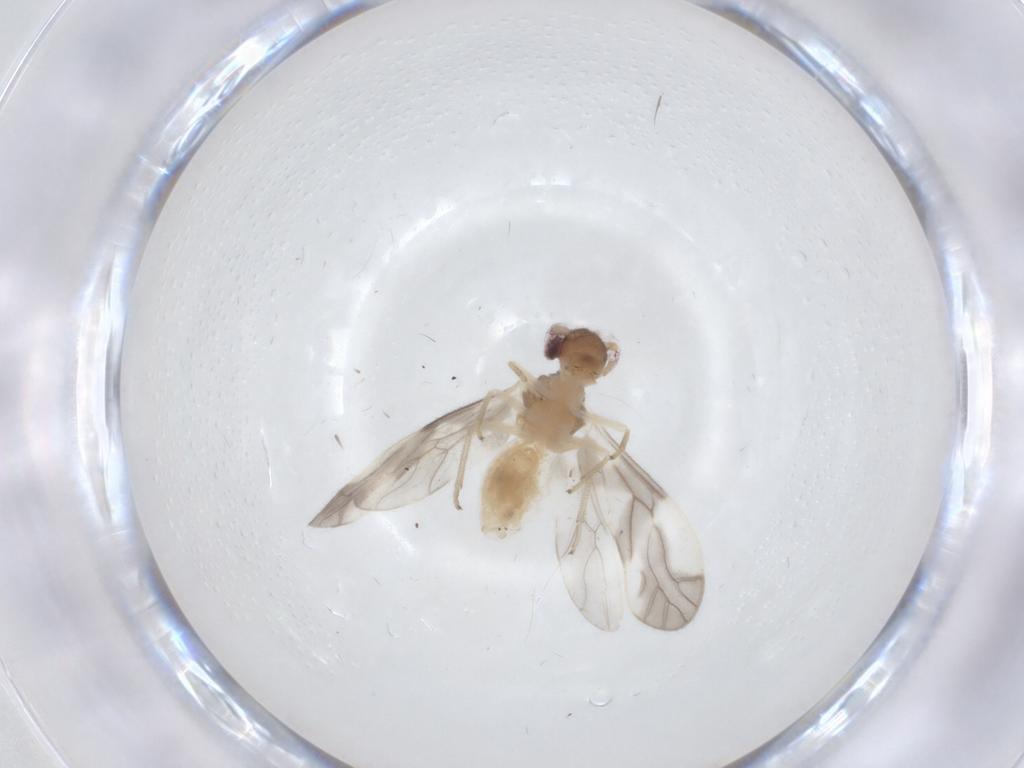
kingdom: Animalia
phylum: Arthropoda
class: Insecta
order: Psocodea
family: Caeciliusidae
